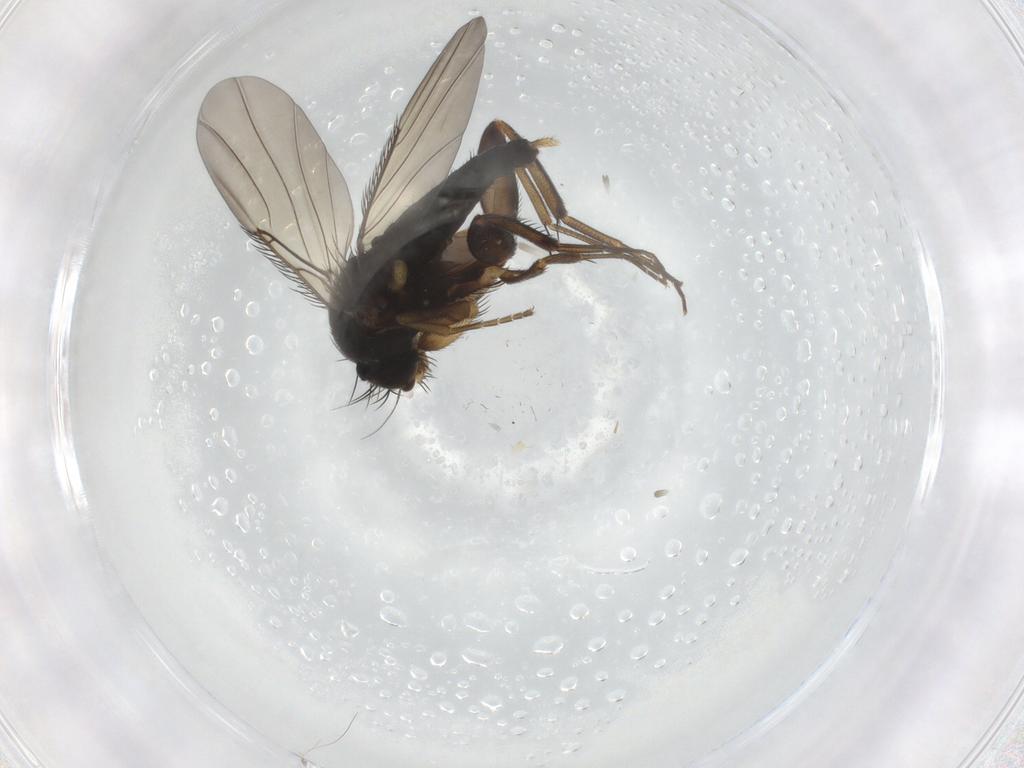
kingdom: Animalia
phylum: Arthropoda
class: Insecta
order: Diptera
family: Phoridae
